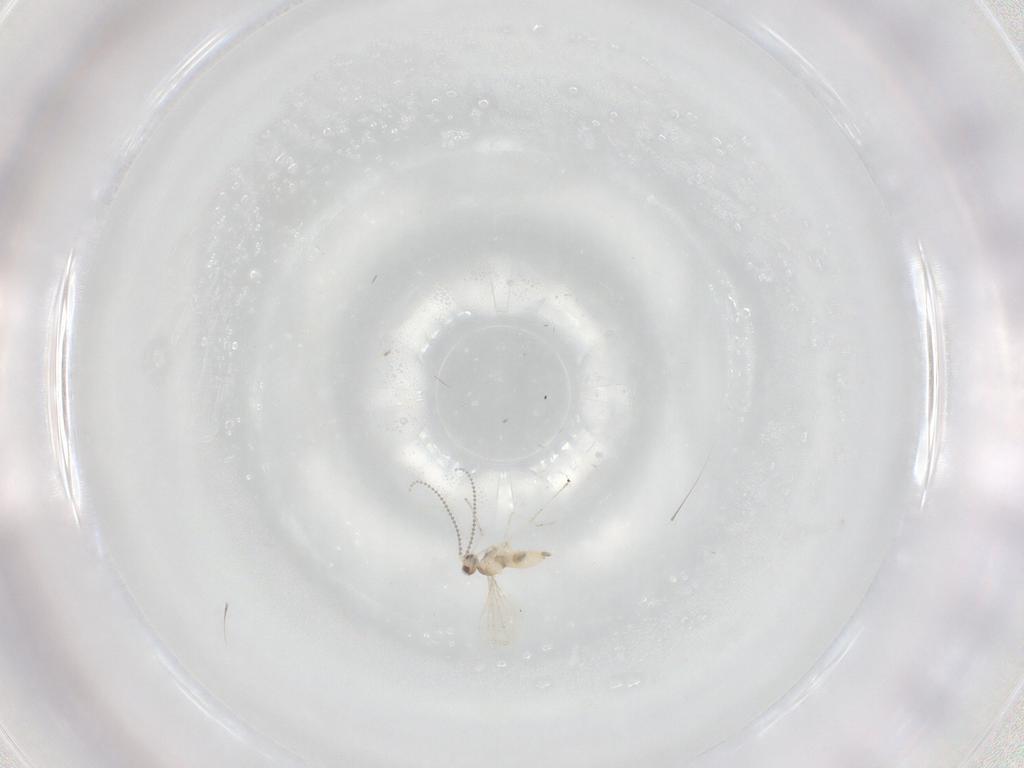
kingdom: Animalia
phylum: Arthropoda
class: Insecta
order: Diptera
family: Cecidomyiidae
